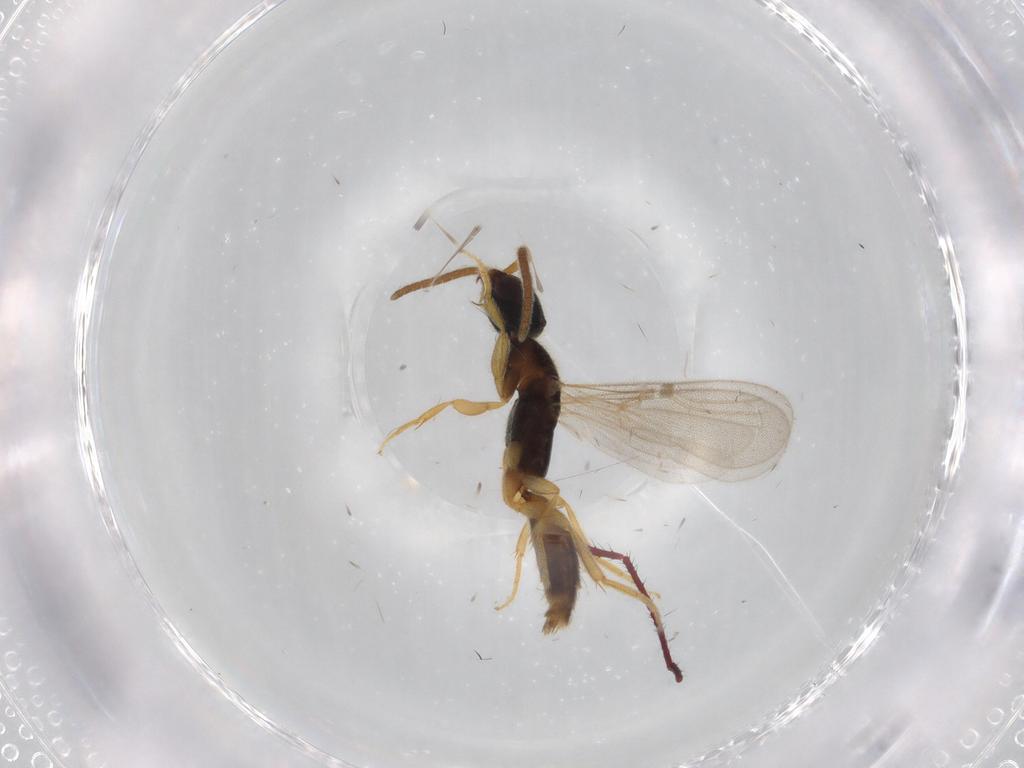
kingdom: Animalia
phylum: Arthropoda
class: Insecta
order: Hymenoptera
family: Bethylidae
